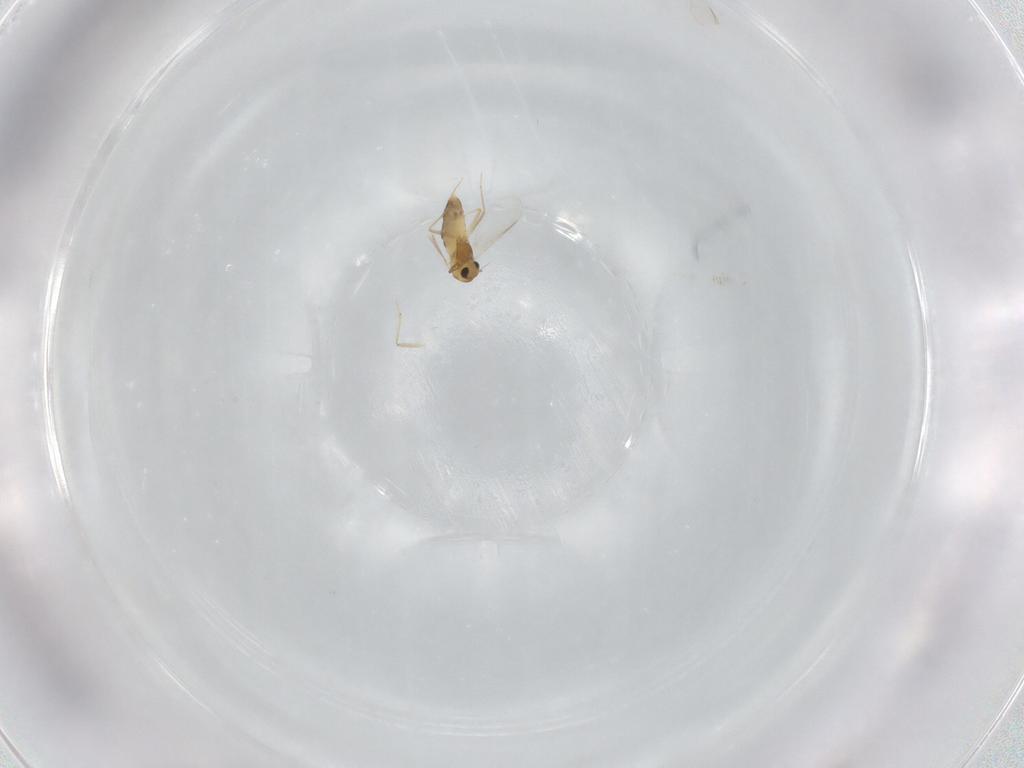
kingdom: Animalia
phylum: Arthropoda
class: Insecta
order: Diptera
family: Chironomidae
